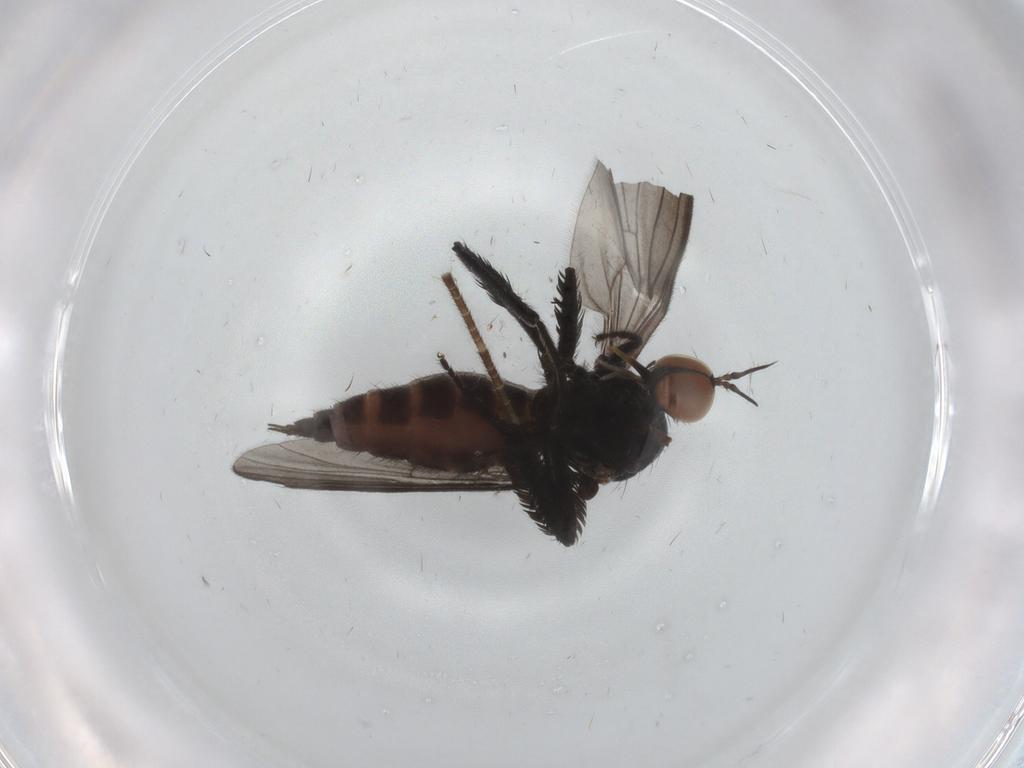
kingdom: Animalia
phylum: Arthropoda
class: Insecta
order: Diptera
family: Empididae
